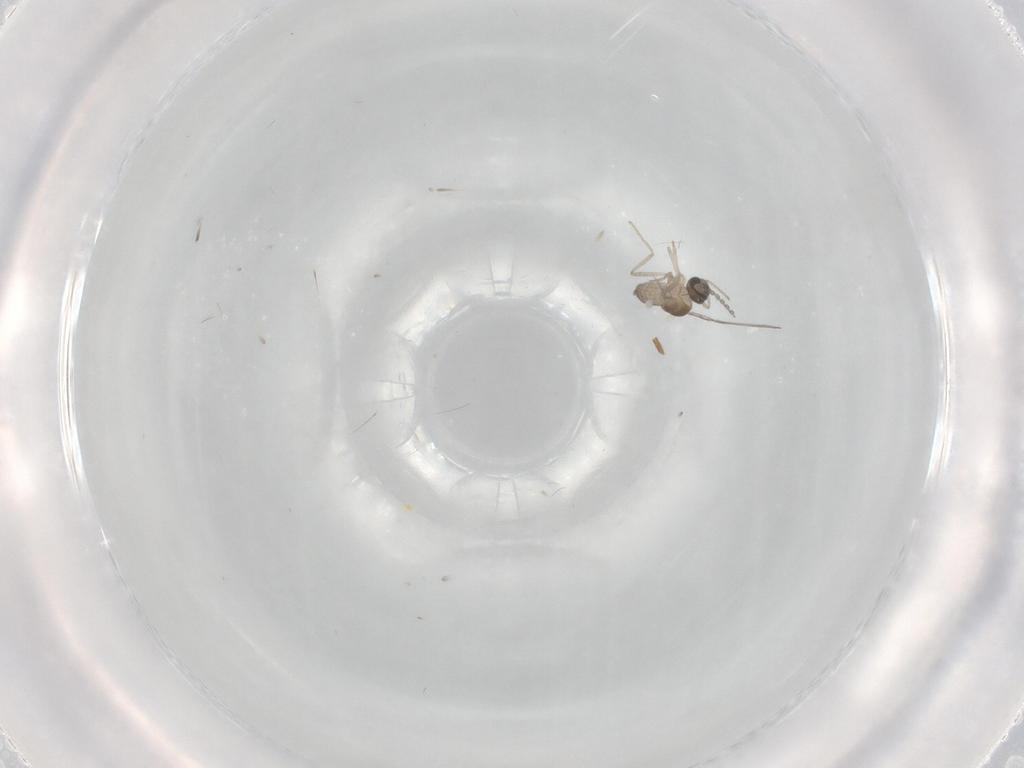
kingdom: Animalia
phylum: Arthropoda
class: Insecta
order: Diptera
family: Cecidomyiidae
